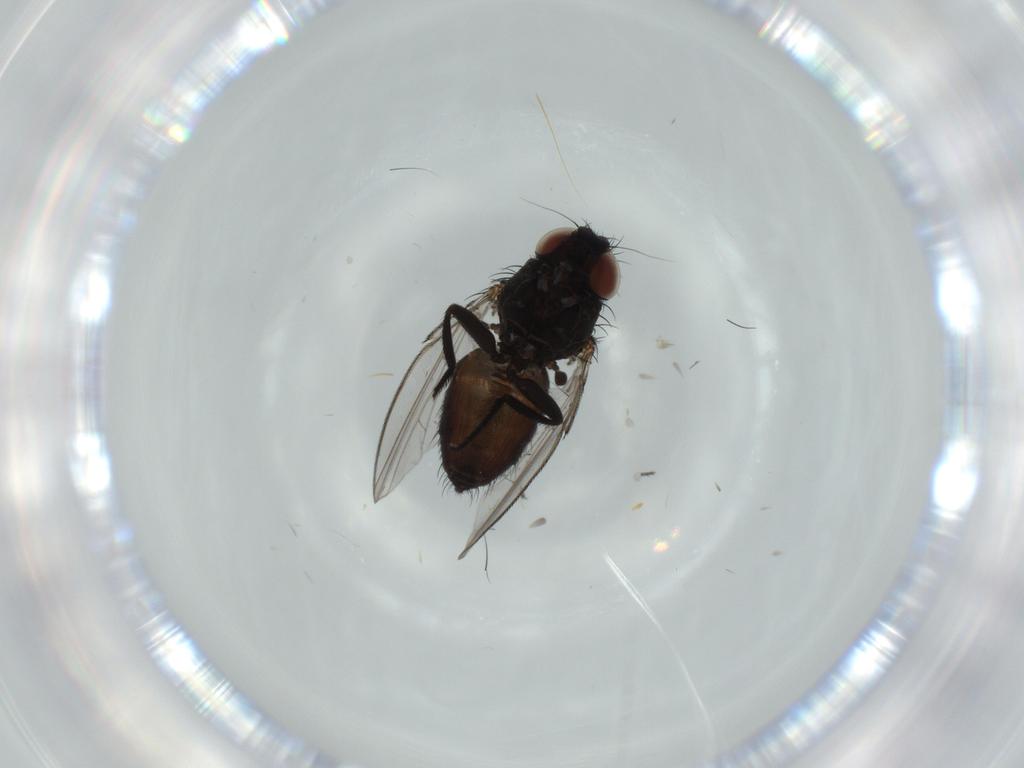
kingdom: Animalia
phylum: Arthropoda
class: Insecta
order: Diptera
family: Milichiidae
